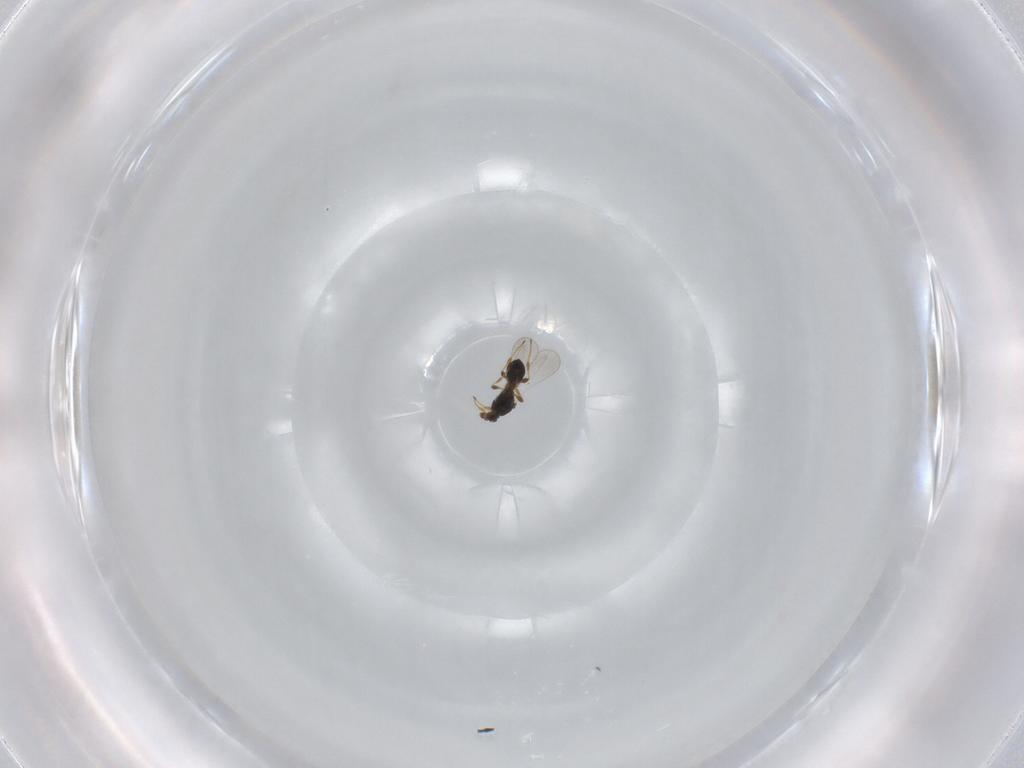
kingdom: Animalia
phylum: Arthropoda
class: Insecta
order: Hymenoptera
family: Platygastridae
